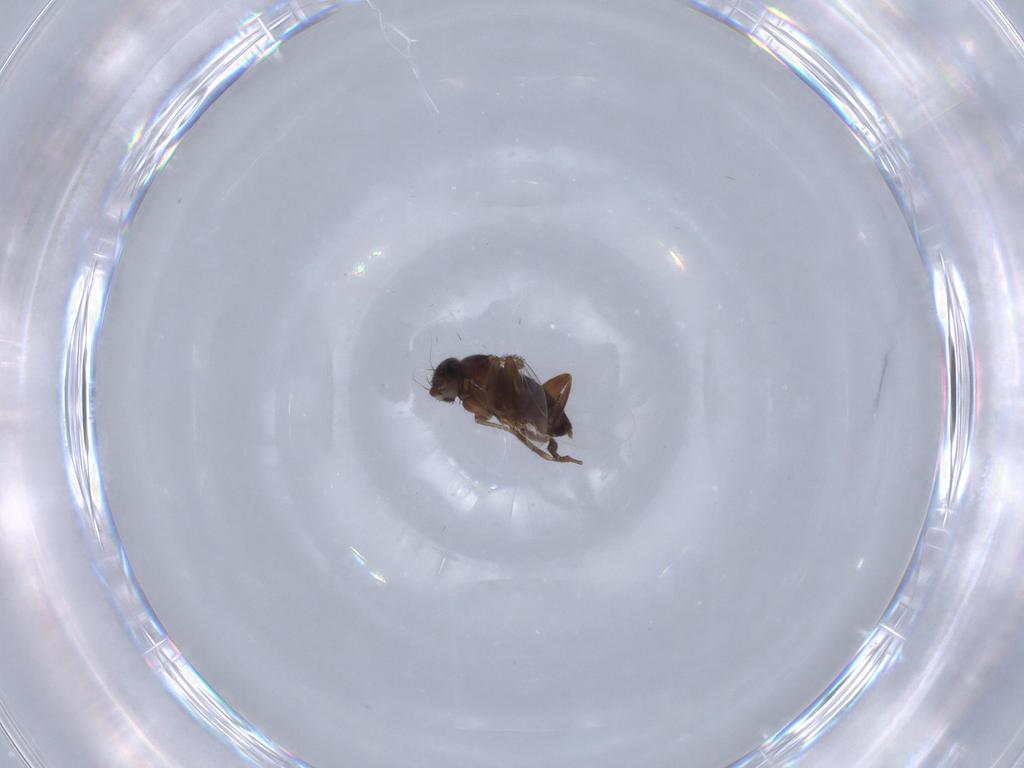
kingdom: Animalia
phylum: Arthropoda
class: Insecta
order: Diptera
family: Phoridae
